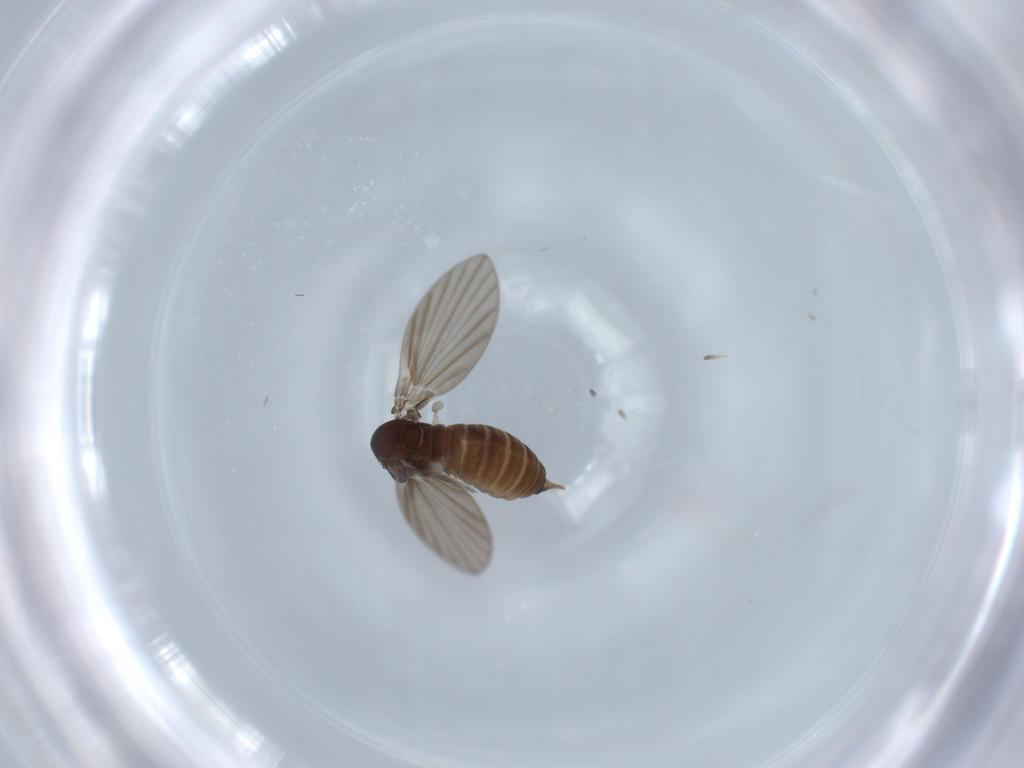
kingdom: Animalia
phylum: Arthropoda
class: Insecta
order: Diptera
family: Psychodidae
